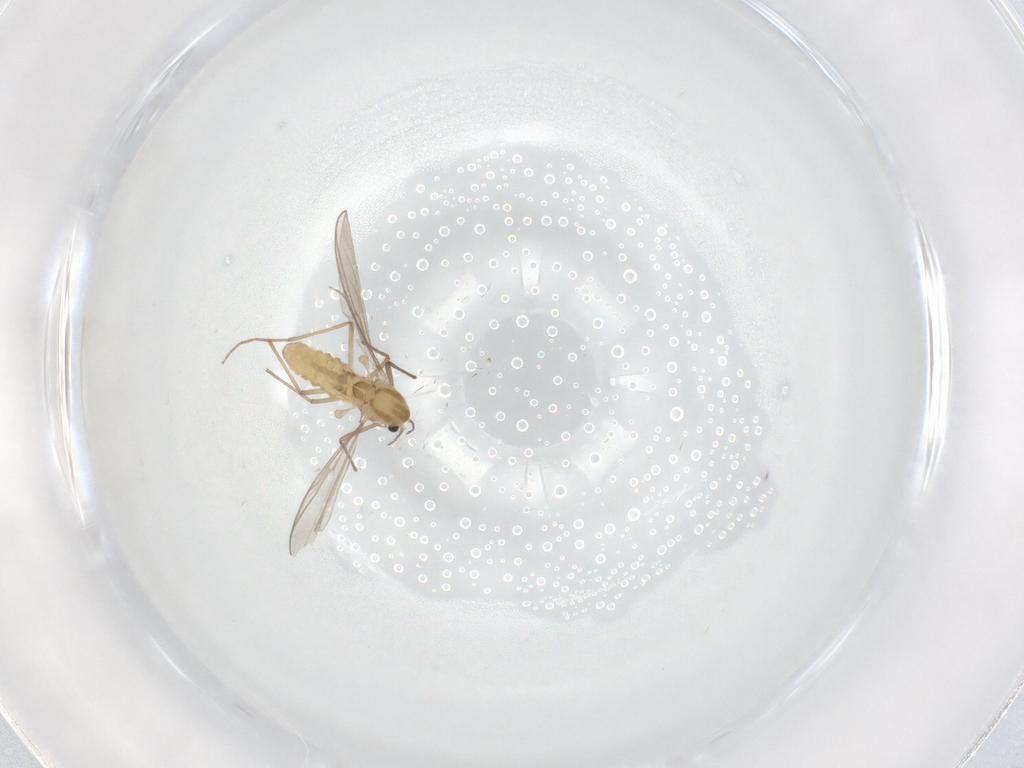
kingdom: Animalia
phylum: Arthropoda
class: Insecta
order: Diptera
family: Chironomidae
